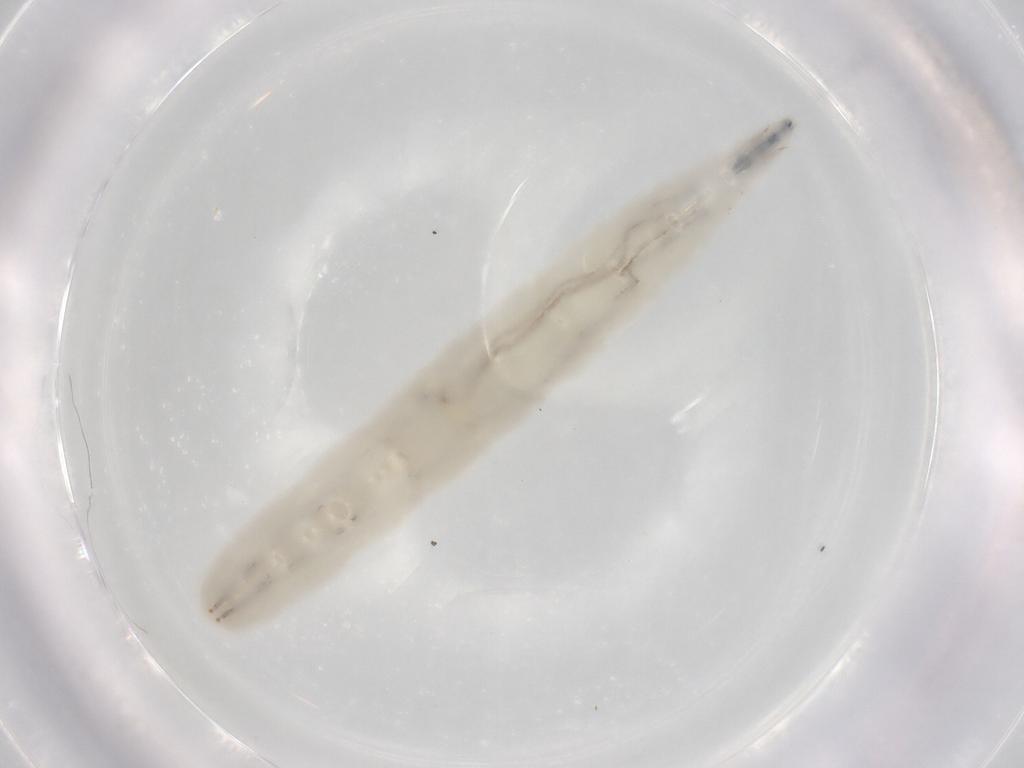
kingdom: Animalia
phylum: Arthropoda
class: Insecta
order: Diptera
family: Muscidae
